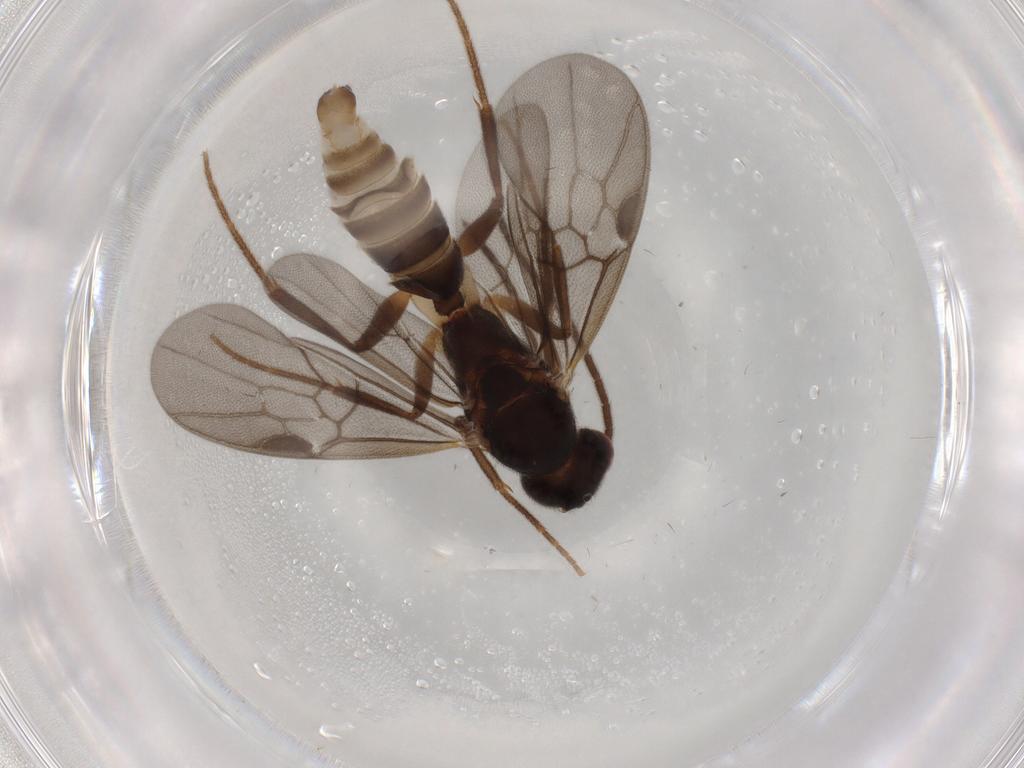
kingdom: Animalia
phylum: Arthropoda
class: Insecta
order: Hymenoptera
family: Formicidae
